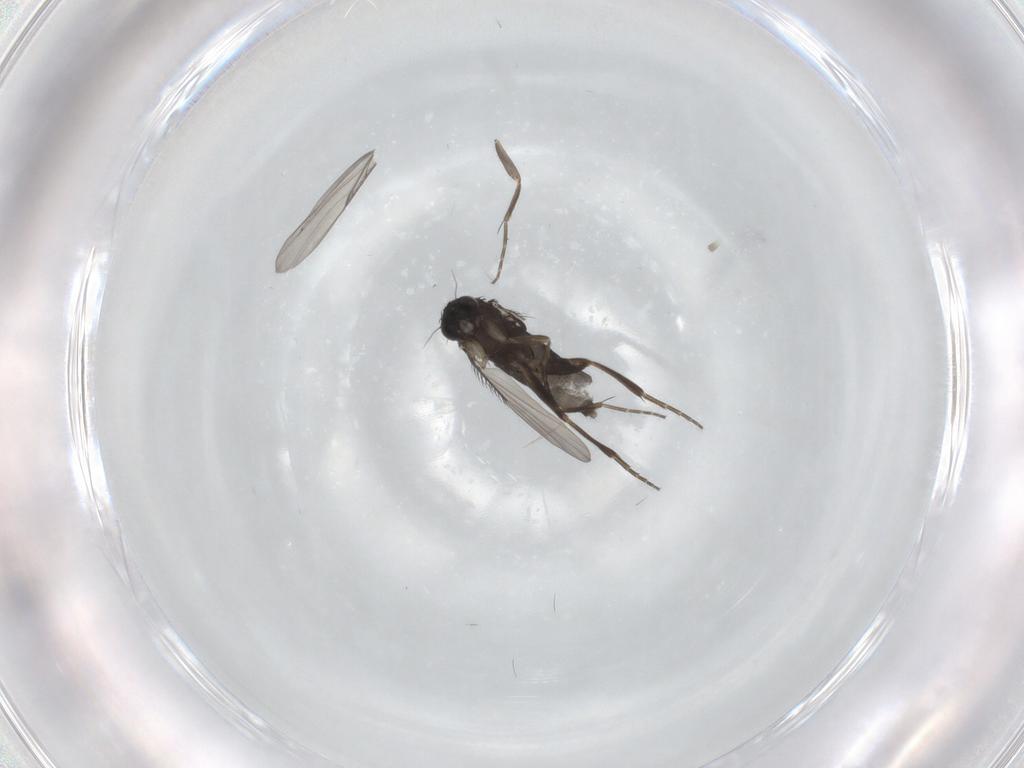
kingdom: Animalia
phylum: Arthropoda
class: Insecta
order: Diptera
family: Phoridae
